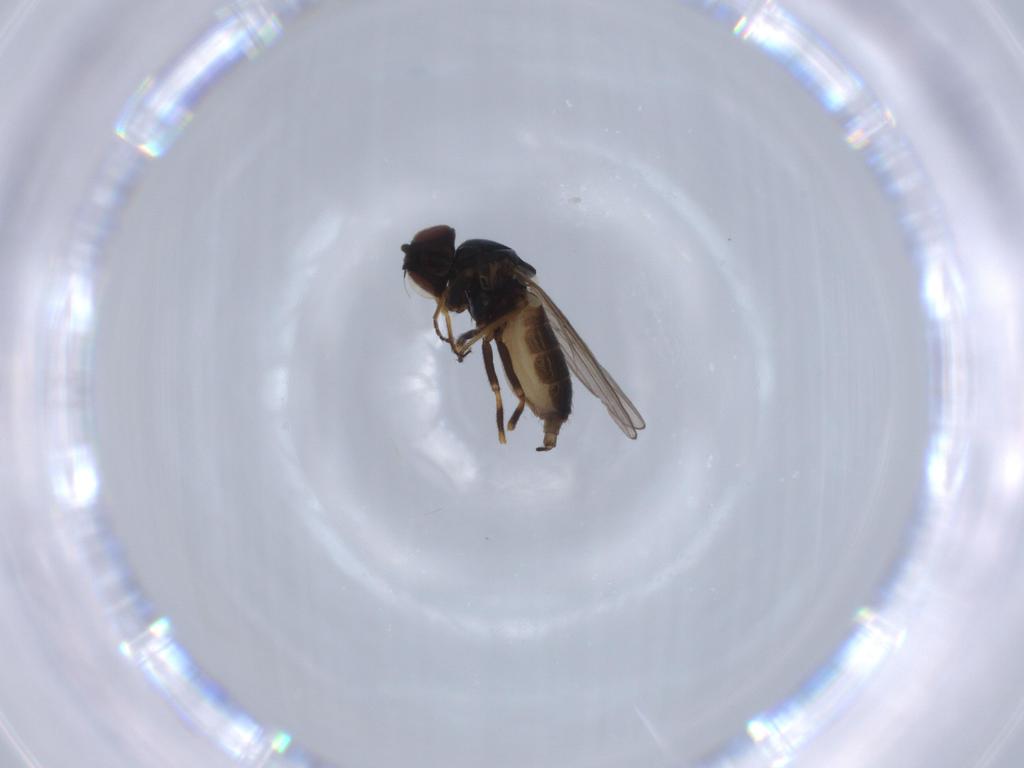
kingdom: Animalia
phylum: Arthropoda
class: Insecta
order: Diptera
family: Chloropidae
